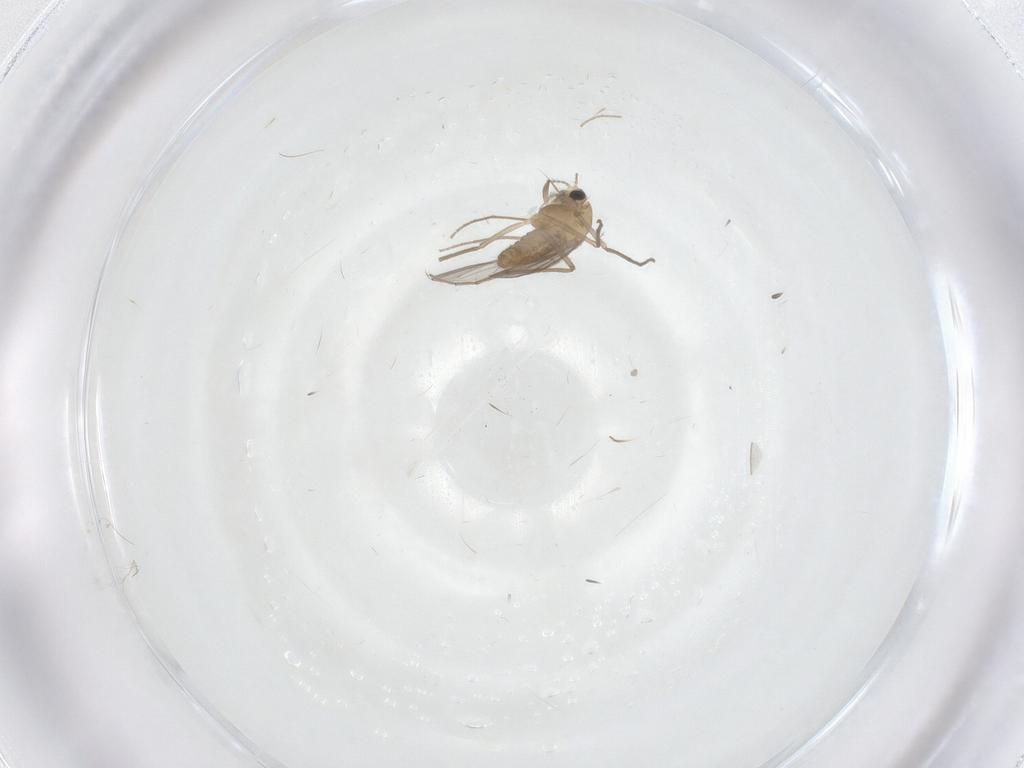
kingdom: Animalia
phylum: Arthropoda
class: Insecta
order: Diptera
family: Chironomidae
